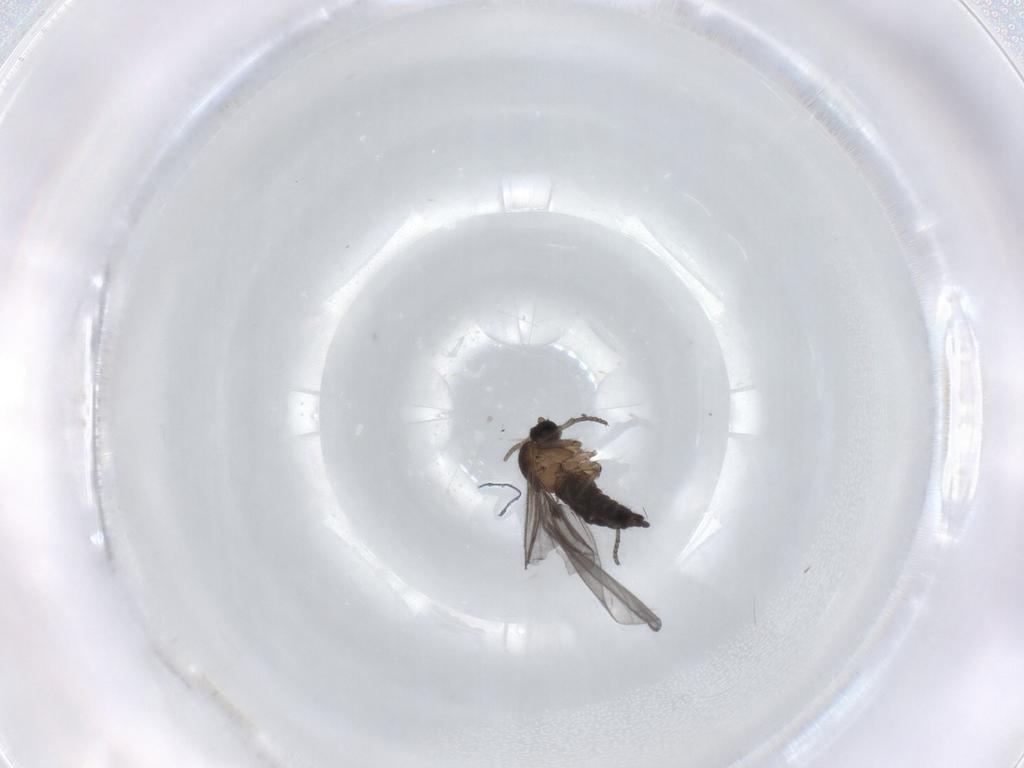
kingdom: Animalia
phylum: Arthropoda
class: Insecta
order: Diptera
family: Sciaridae
